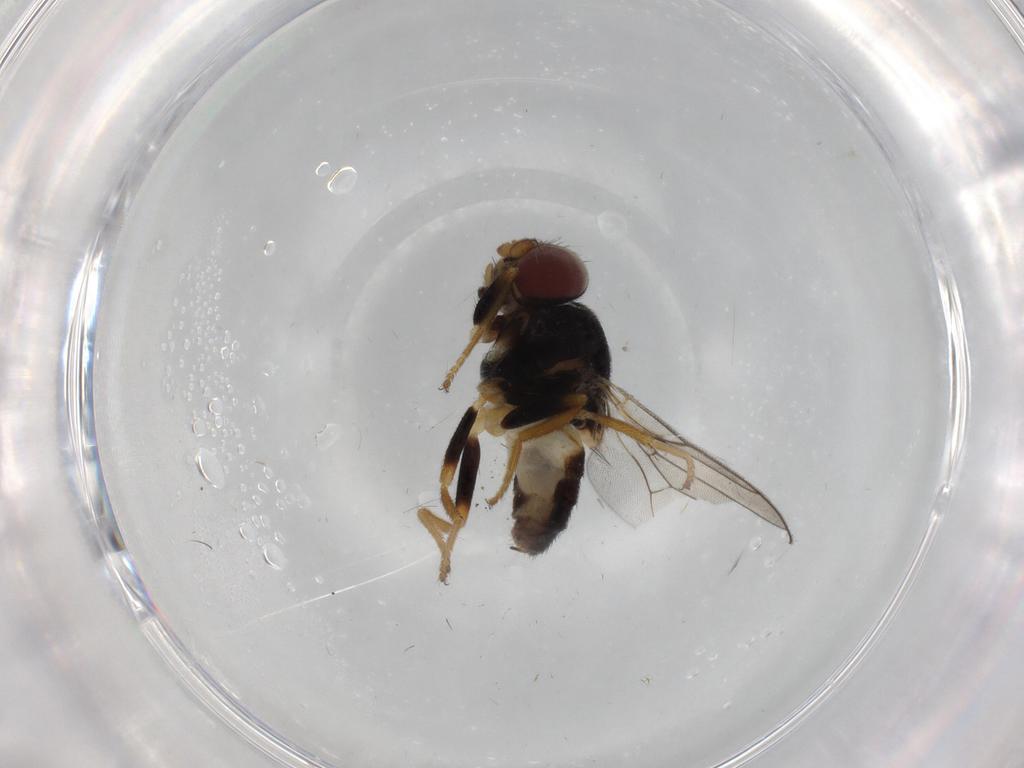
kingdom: Animalia
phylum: Arthropoda
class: Insecta
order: Diptera
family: Chloropidae
